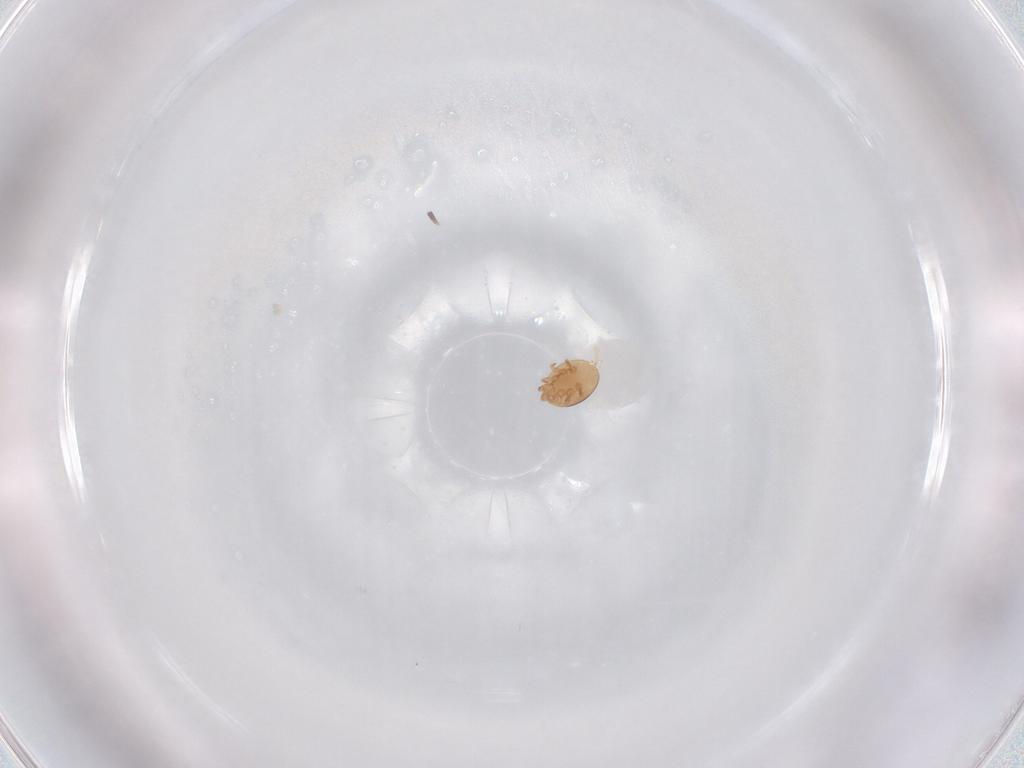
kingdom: Animalia
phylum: Arthropoda
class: Arachnida
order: Mesostigmata
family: Trematuridae
